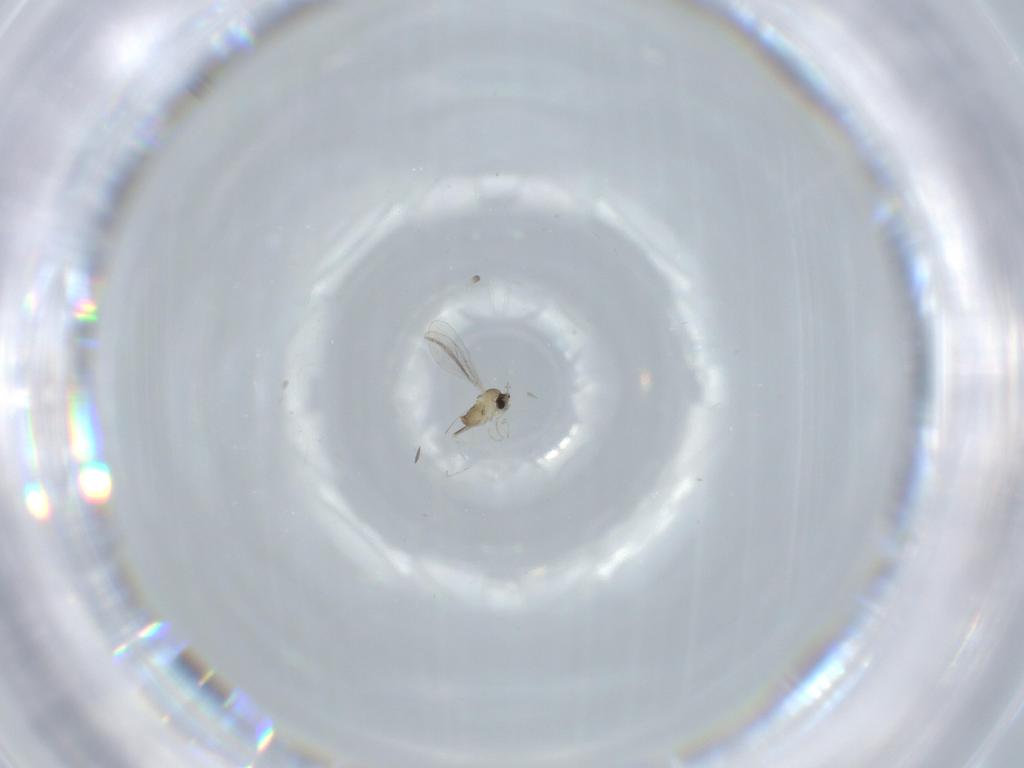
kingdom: Animalia
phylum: Arthropoda
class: Insecta
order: Diptera
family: Cecidomyiidae
